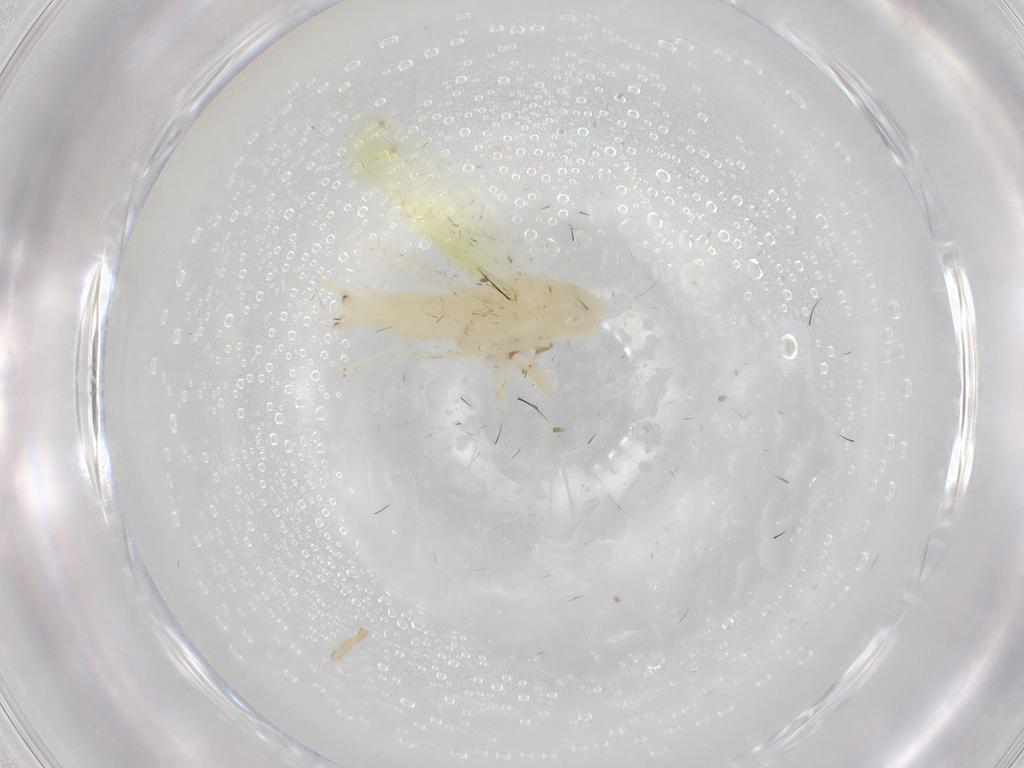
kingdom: Animalia
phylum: Arthropoda
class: Insecta
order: Hemiptera
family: Cicadellidae
